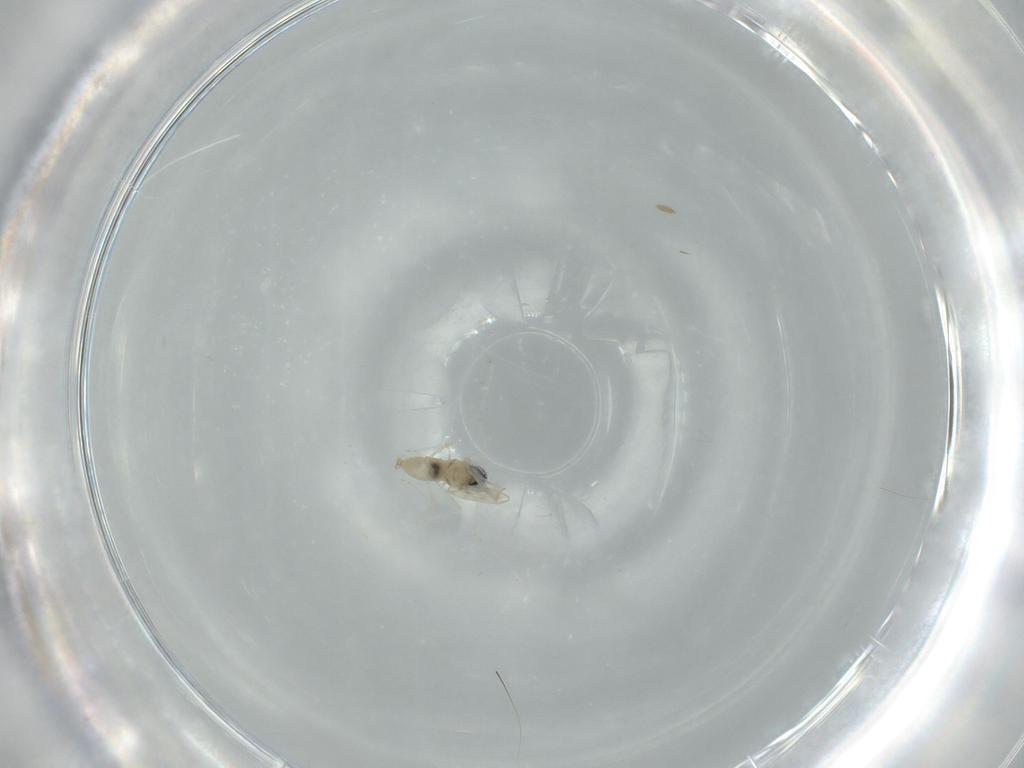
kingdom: Animalia
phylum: Arthropoda
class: Insecta
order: Diptera
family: Cecidomyiidae
